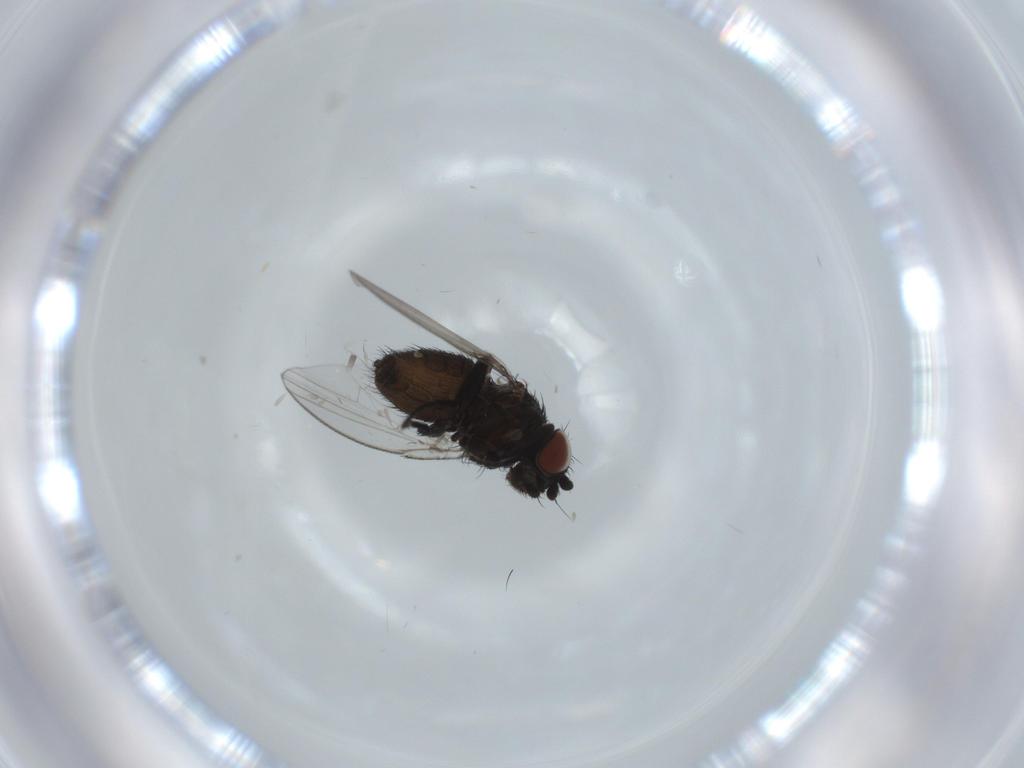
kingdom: Animalia
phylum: Arthropoda
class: Insecta
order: Diptera
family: Milichiidae
